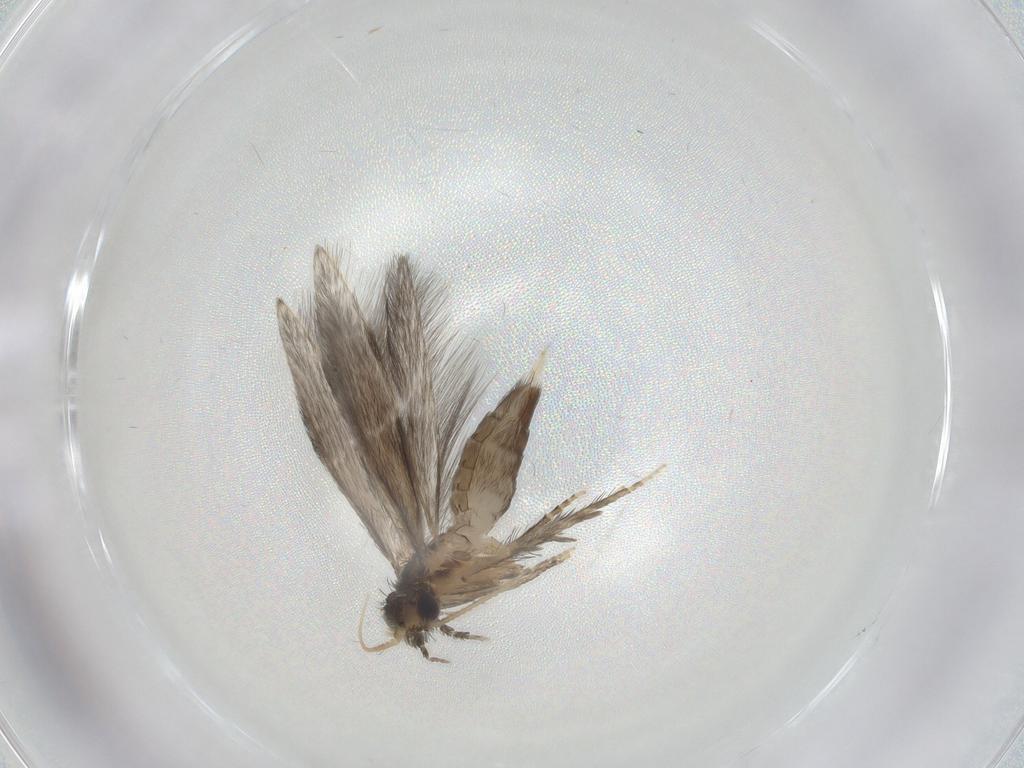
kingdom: Animalia
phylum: Arthropoda
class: Insecta
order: Trichoptera
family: Hydroptilidae
